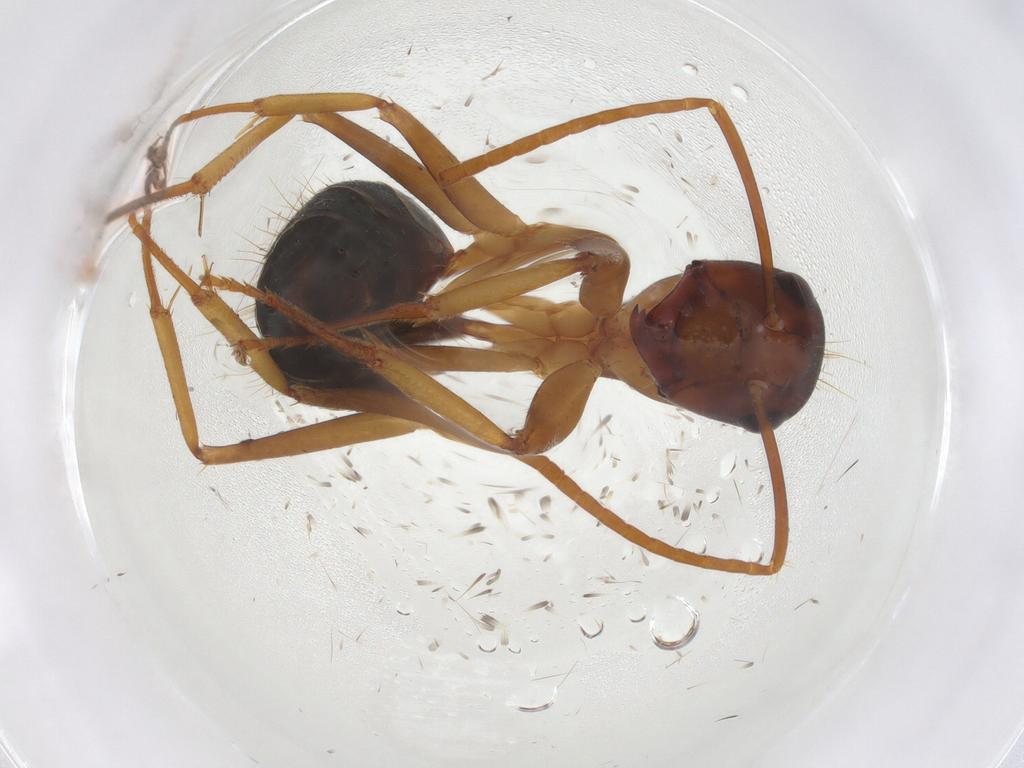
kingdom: Animalia
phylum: Arthropoda
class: Insecta
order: Hymenoptera
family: Formicidae
